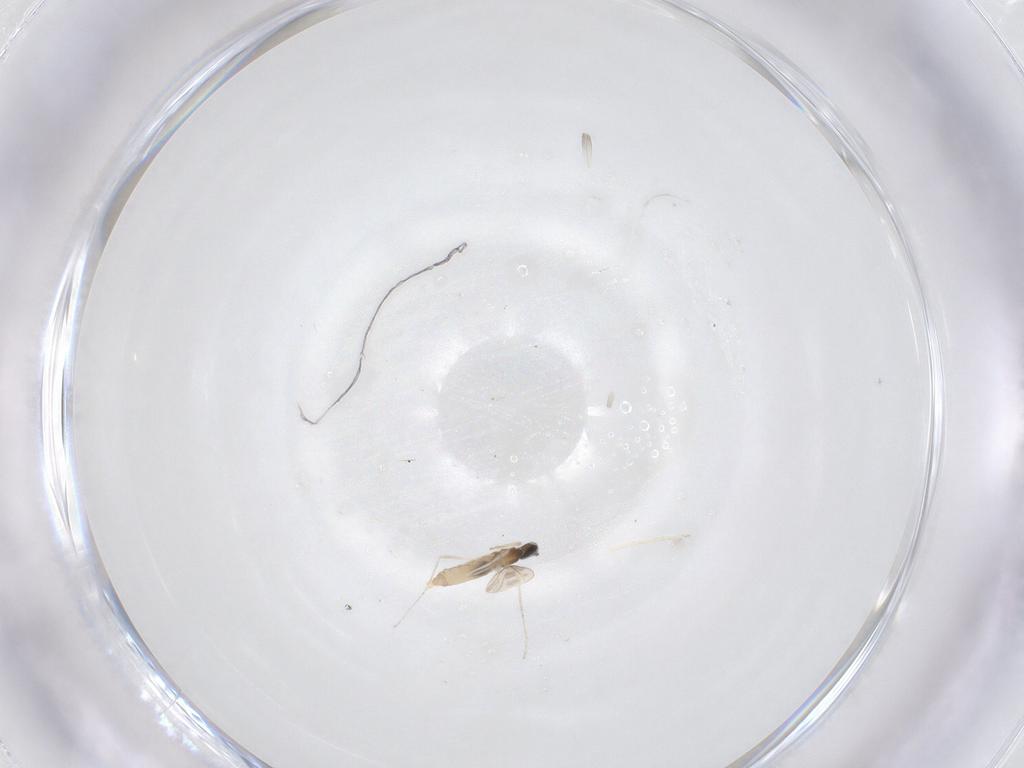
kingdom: Animalia
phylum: Arthropoda
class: Insecta
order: Diptera
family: Cecidomyiidae
